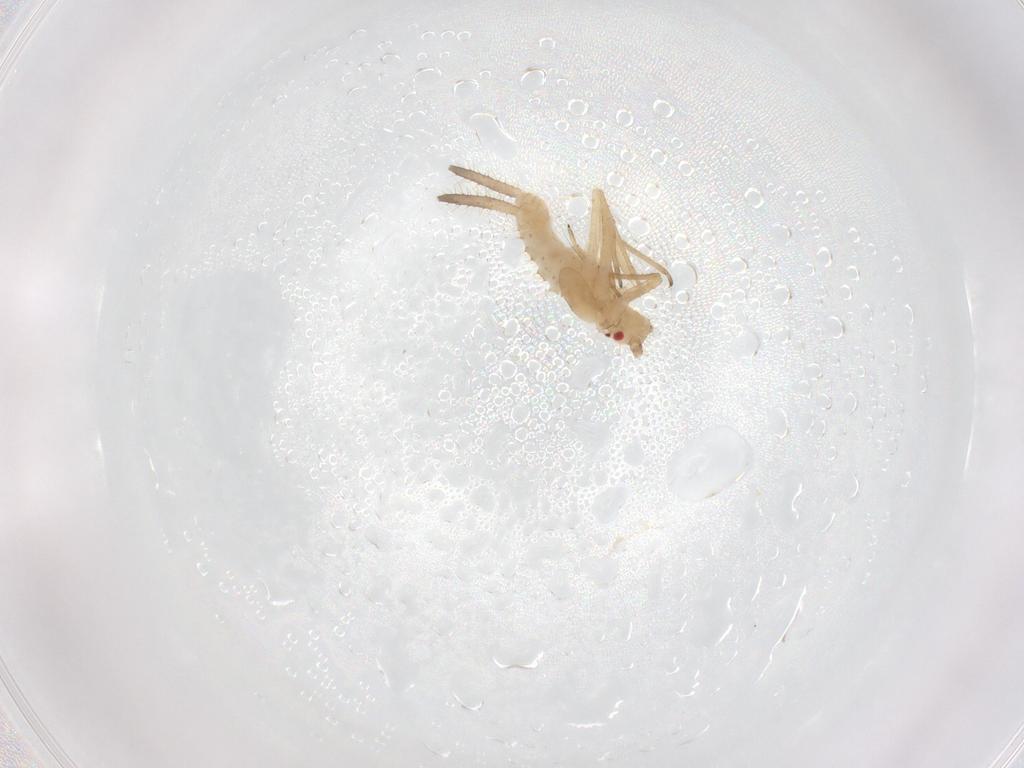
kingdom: Animalia
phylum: Arthropoda
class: Insecta
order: Hemiptera
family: Aphididae
